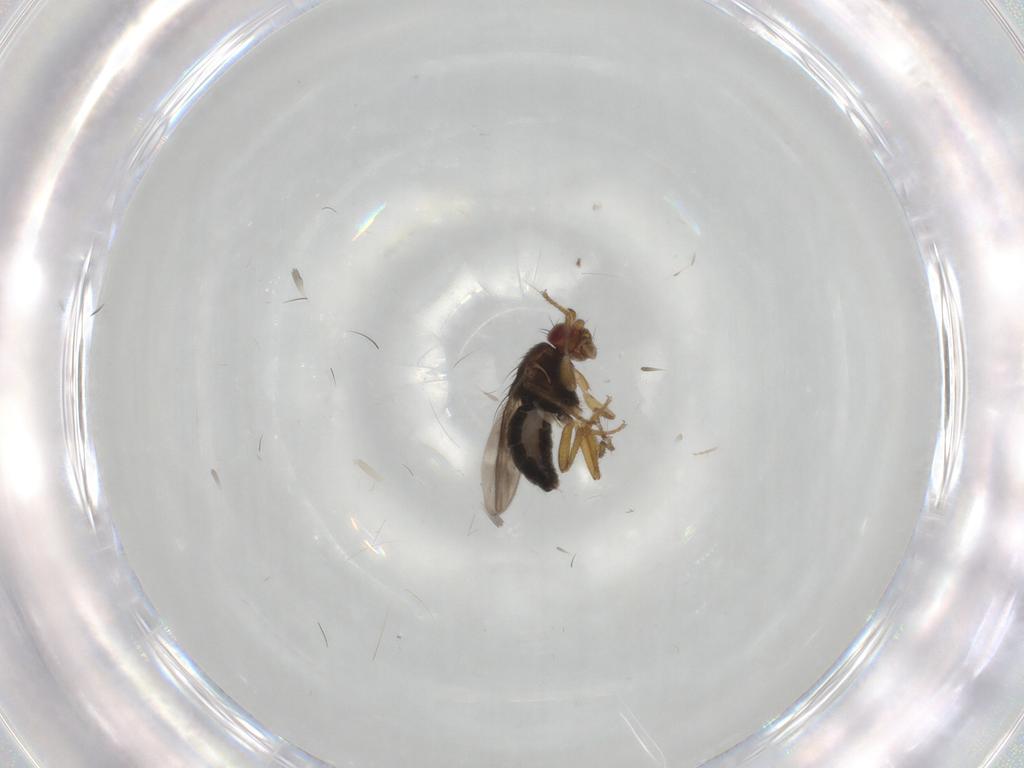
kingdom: Animalia
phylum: Arthropoda
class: Insecta
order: Diptera
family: Sphaeroceridae
